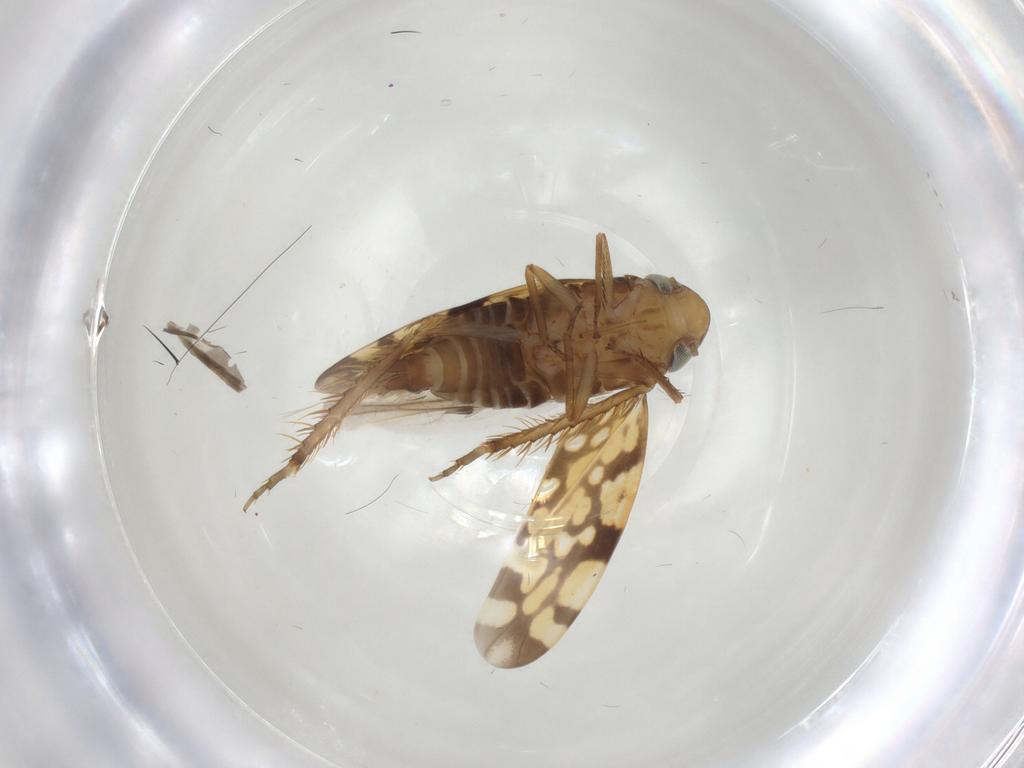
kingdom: Animalia
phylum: Arthropoda
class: Insecta
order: Hemiptera
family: Cicadellidae
